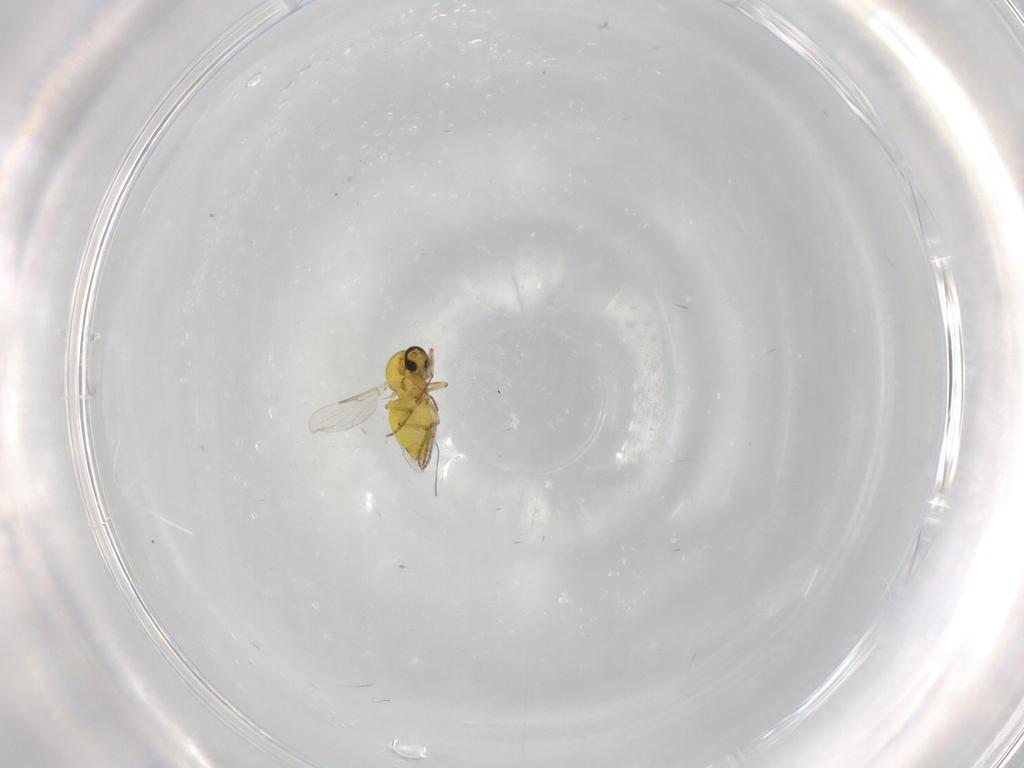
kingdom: Animalia
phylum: Arthropoda
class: Insecta
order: Diptera
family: Ceratopogonidae
